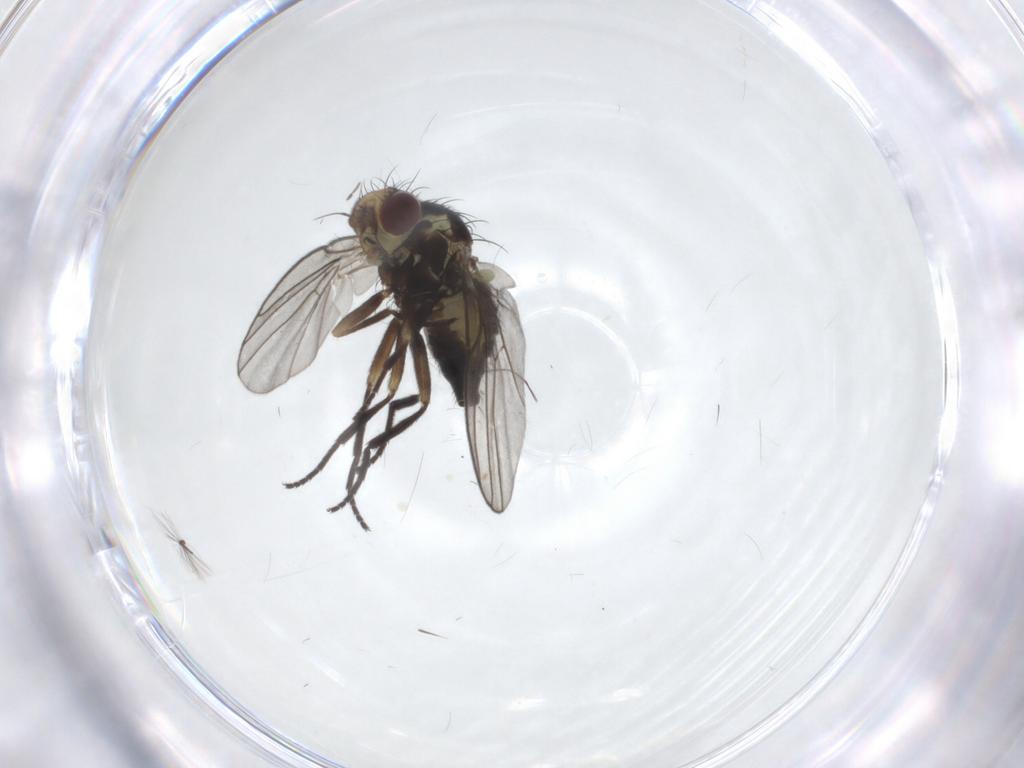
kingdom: Animalia
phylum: Arthropoda
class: Insecta
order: Diptera
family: Agromyzidae
